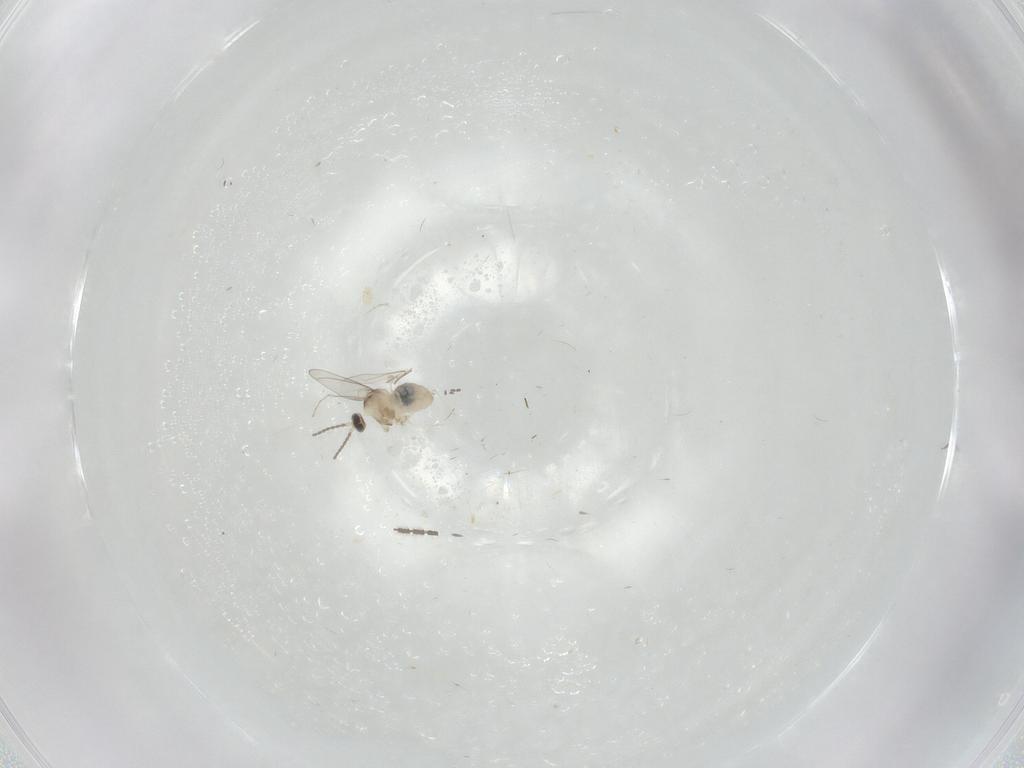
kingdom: Animalia
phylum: Arthropoda
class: Insecta
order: Diptera
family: Cecidomyiidae
